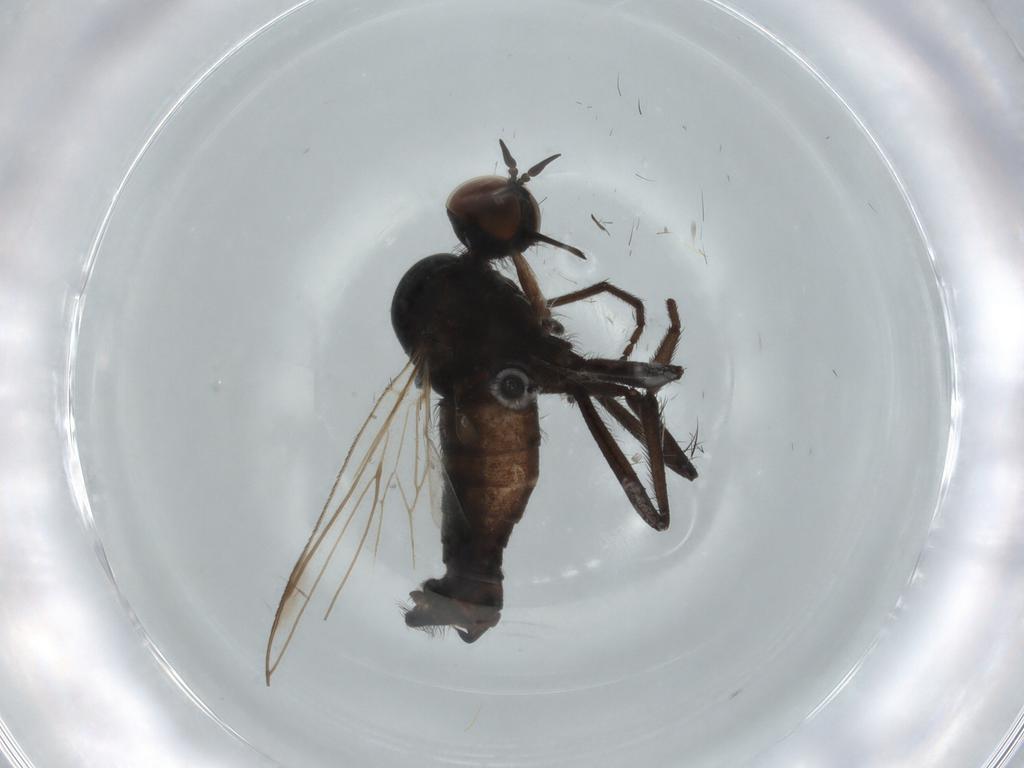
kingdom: Animalia
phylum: Arthropoda
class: Insecta
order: Diptera
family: Empididae
